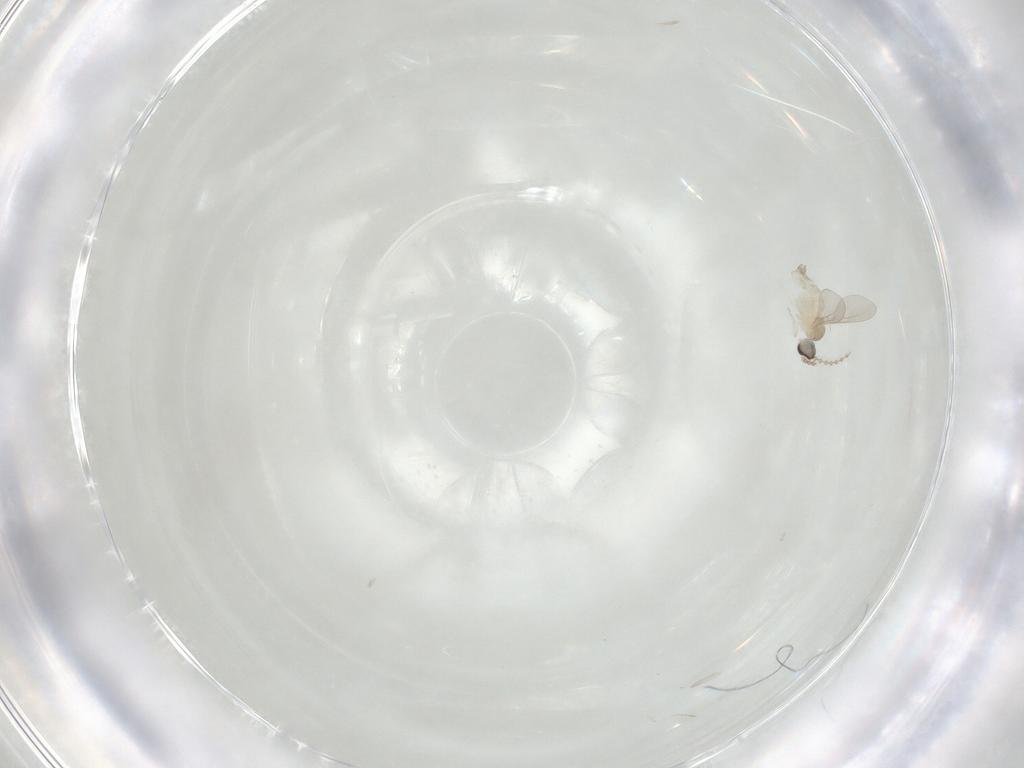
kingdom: Animalia
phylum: Arthropoda
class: Insecta
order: Diptera
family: Cecidomyiidae
